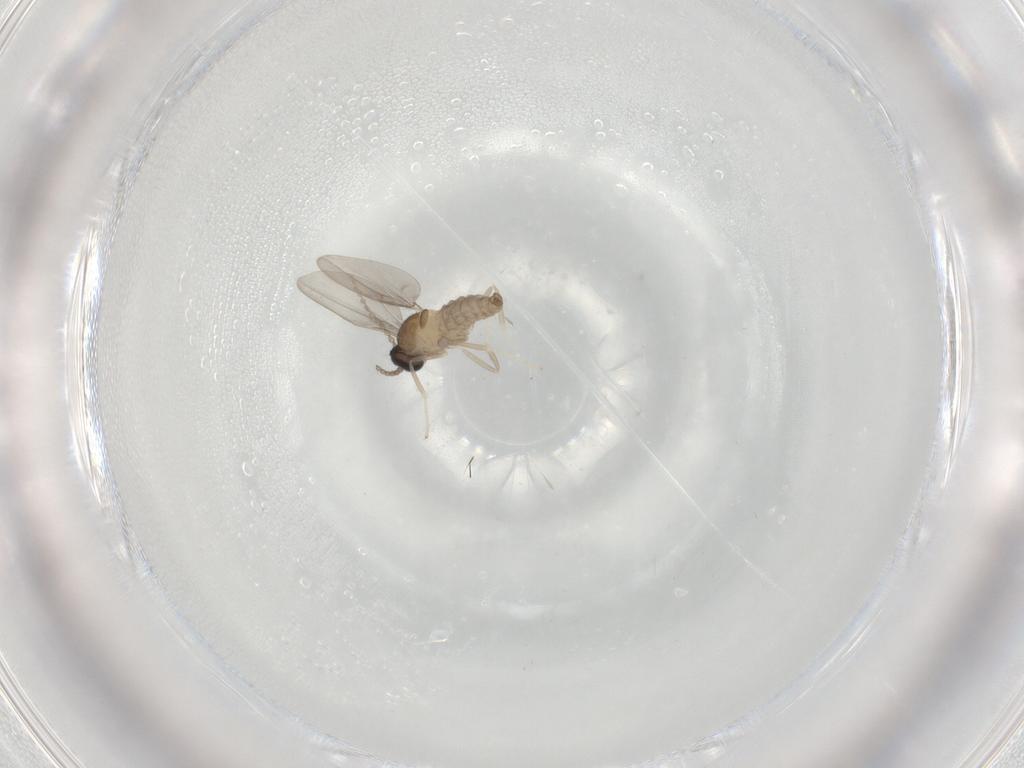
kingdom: Animalia
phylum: Arthropoda
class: Insecta
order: Diptera
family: Cecidomyiidae
